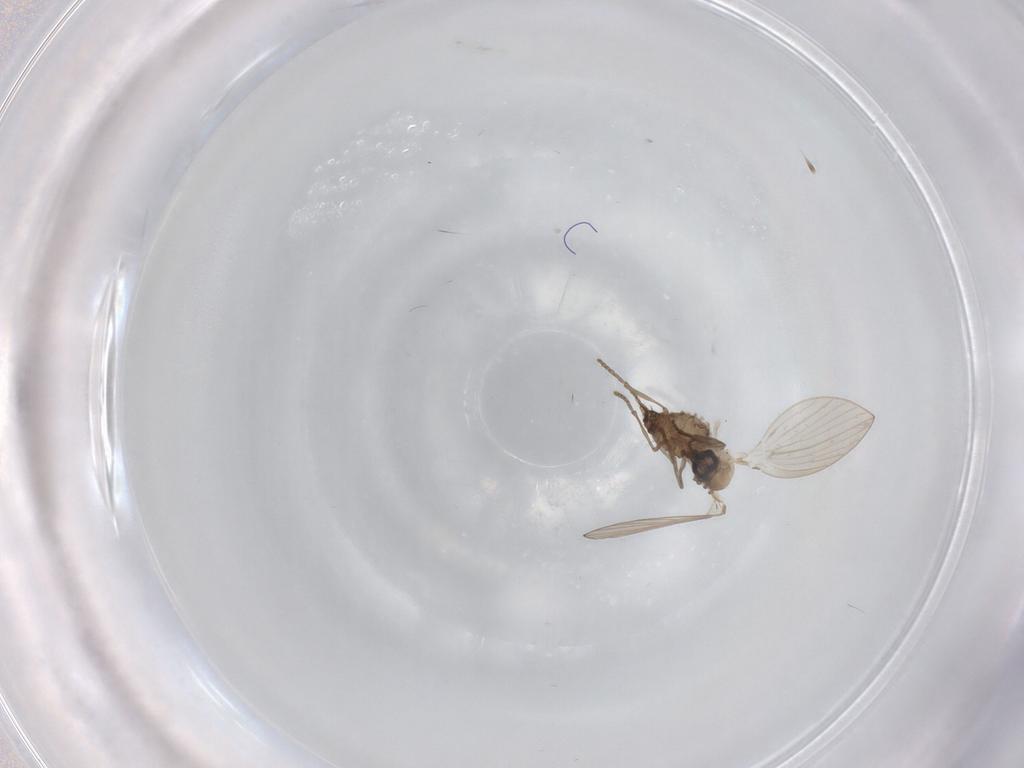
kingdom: Animalia
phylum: Arthropoda
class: Insecta
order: Diptera
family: Psychodidae
